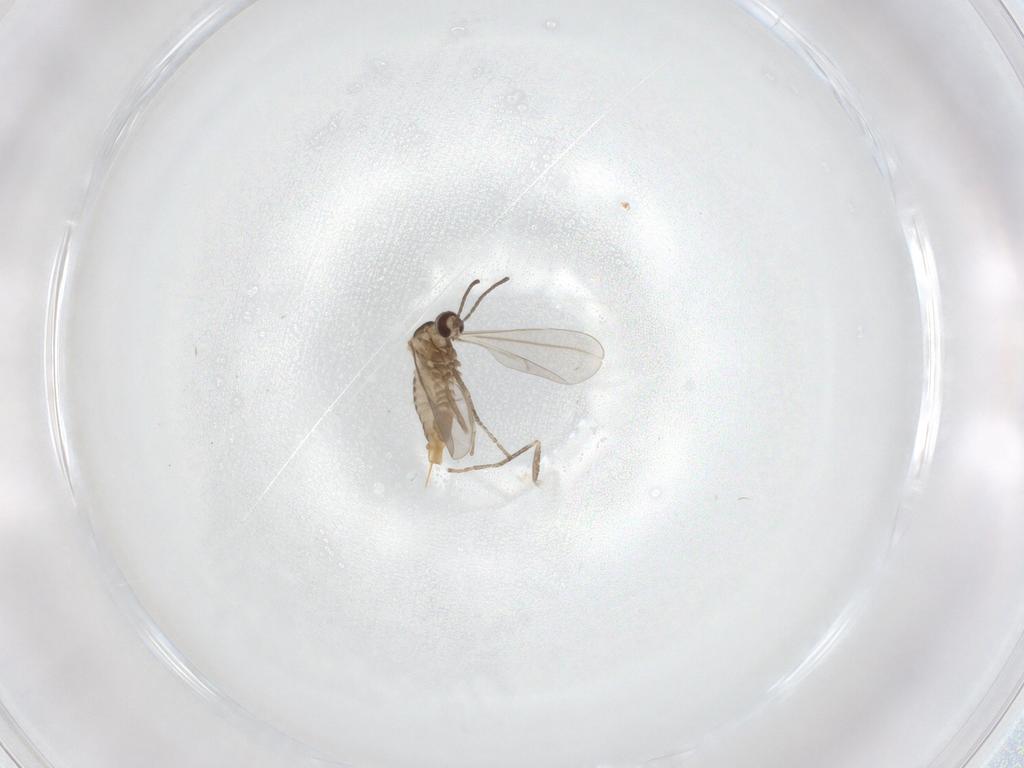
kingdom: Animalia
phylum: Arthropoda
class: Insecta
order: Diptera
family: Cecidomyiidae
